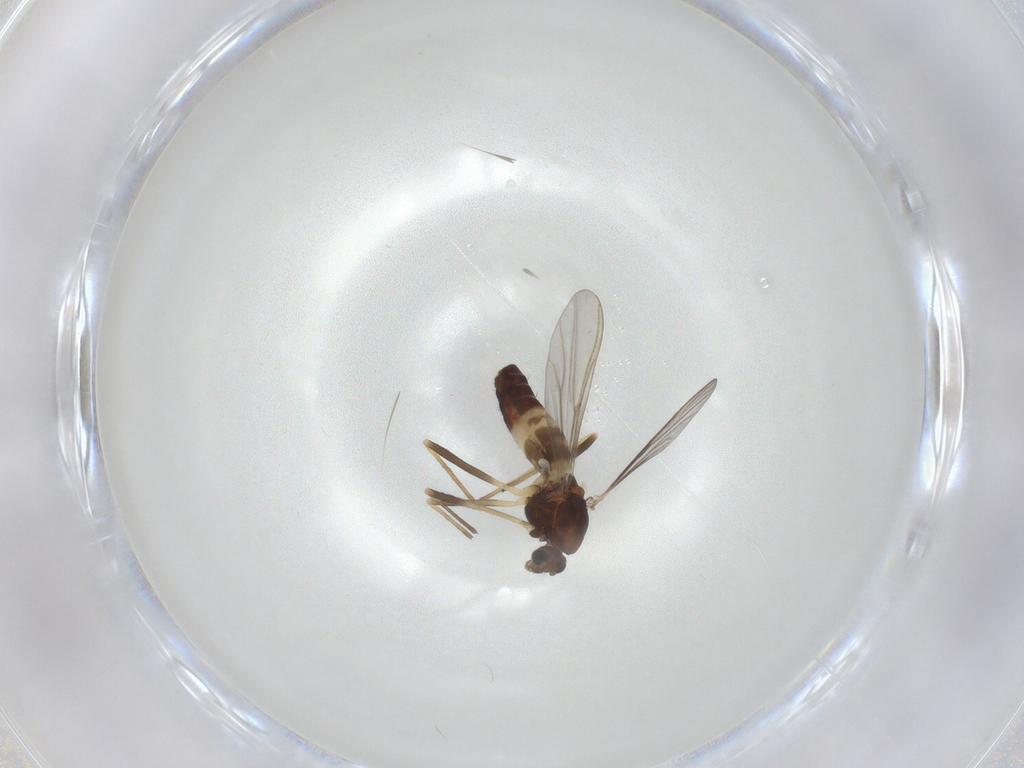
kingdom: Animalia
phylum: Arthropoda
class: Insecta
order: Diptera
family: Chironomidae
